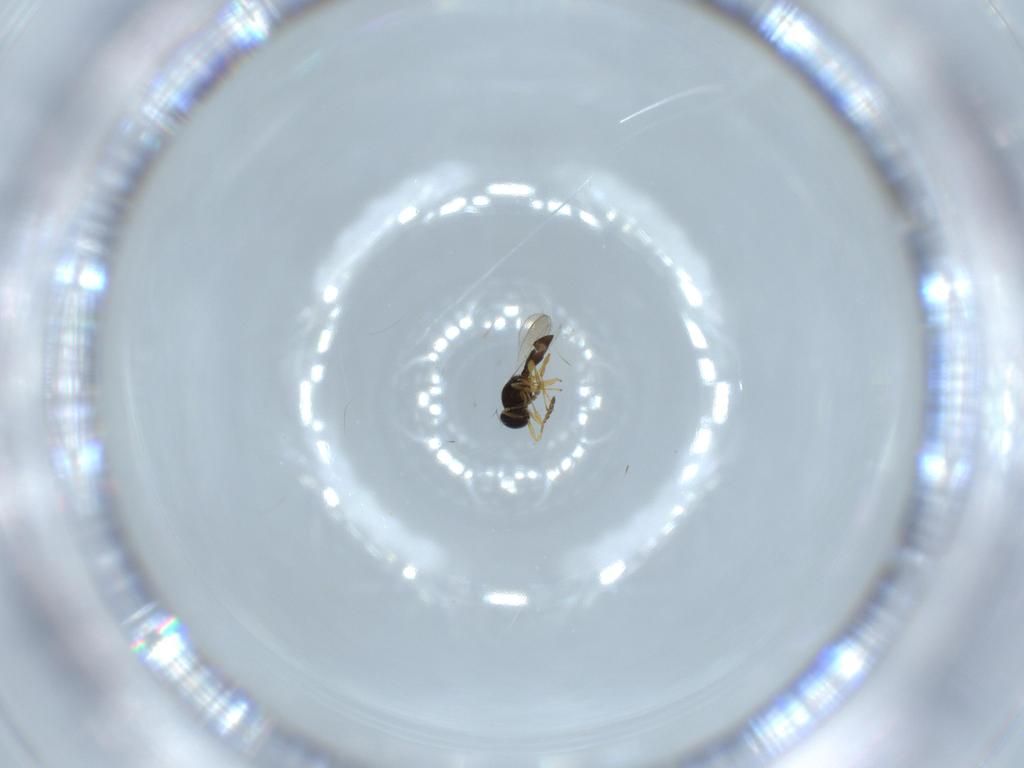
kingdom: Animalia
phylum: Arthropoda
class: Insecta
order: Hymenoptera
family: Platygastridae
